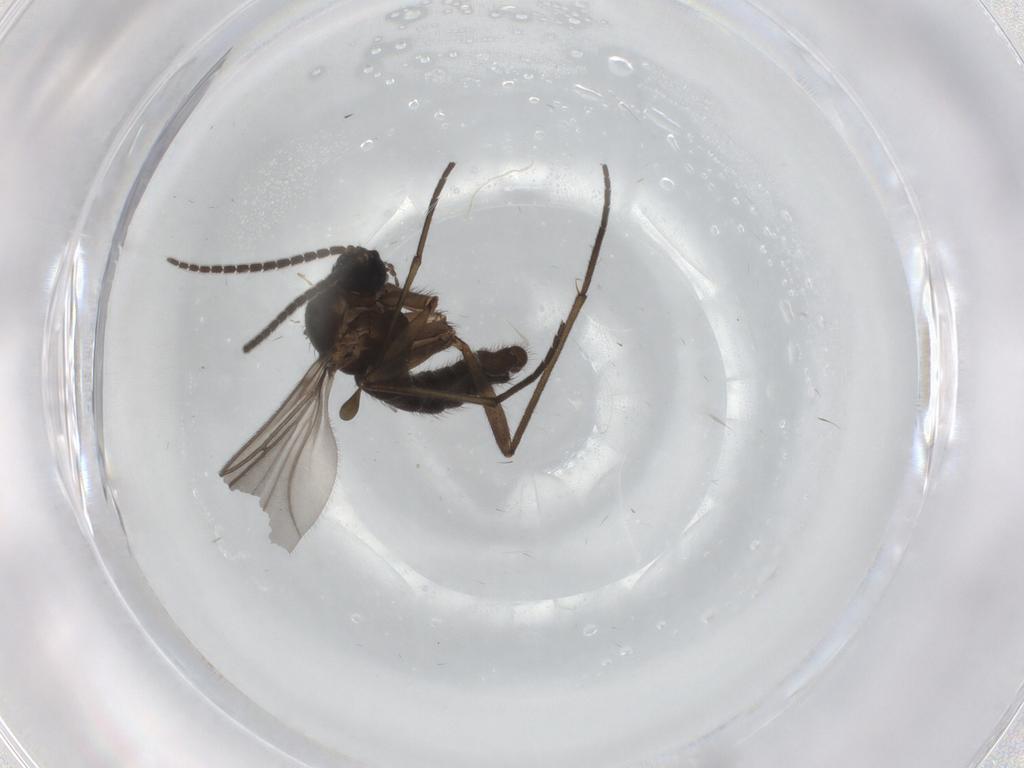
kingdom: Animalia
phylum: Arthropoda
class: Insecta
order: Diptera
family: Sciaridae
